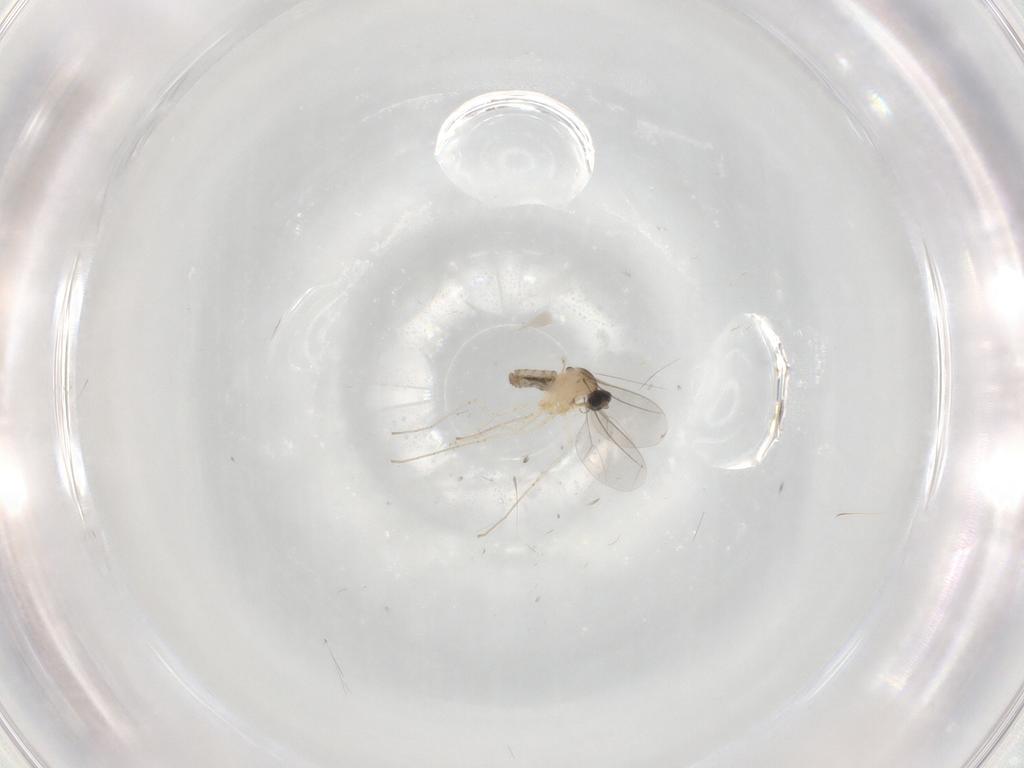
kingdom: Animalia
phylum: Arthropoda
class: Insecta
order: Diptera
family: Cecidomyiidae
